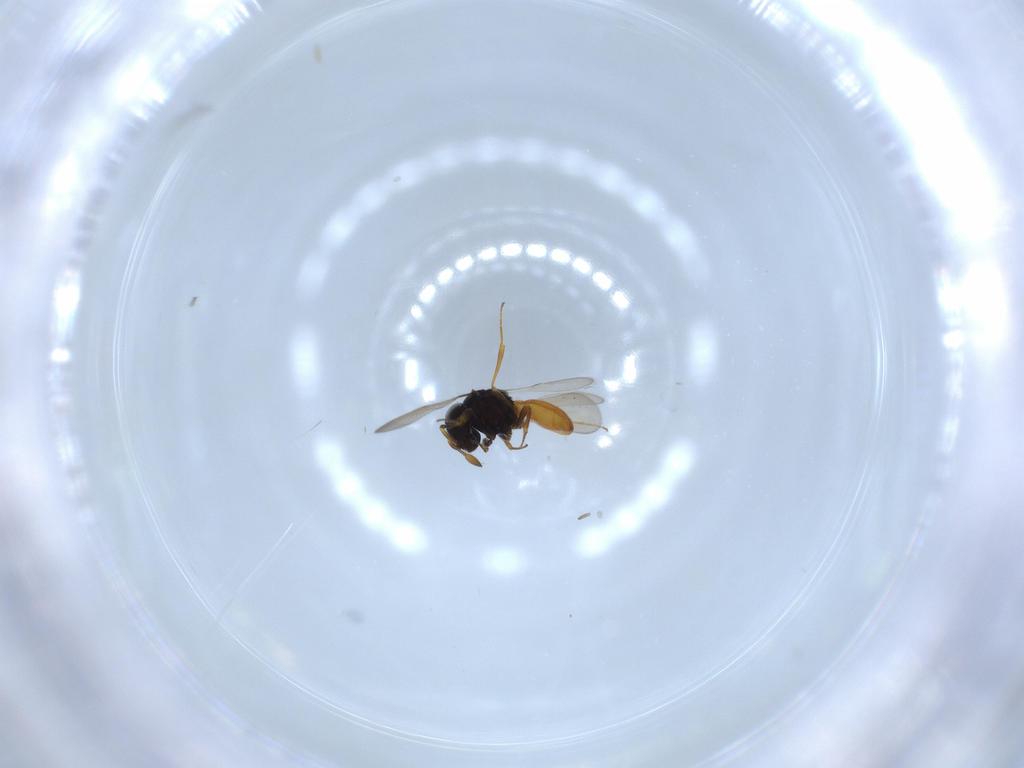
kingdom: Animalia
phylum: Arthropoda
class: Insecta
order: Hymenoptera
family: Scelionidae
